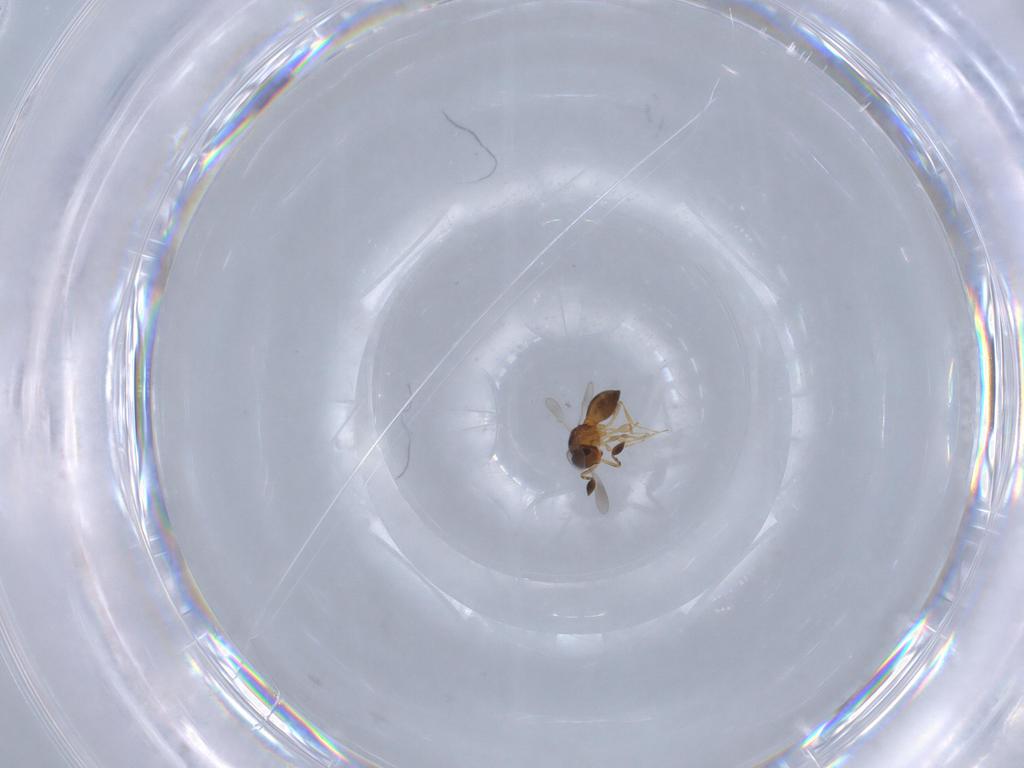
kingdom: Animalia
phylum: Arthropoda
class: Insecta
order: Hymenoptera
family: Scelionidae
